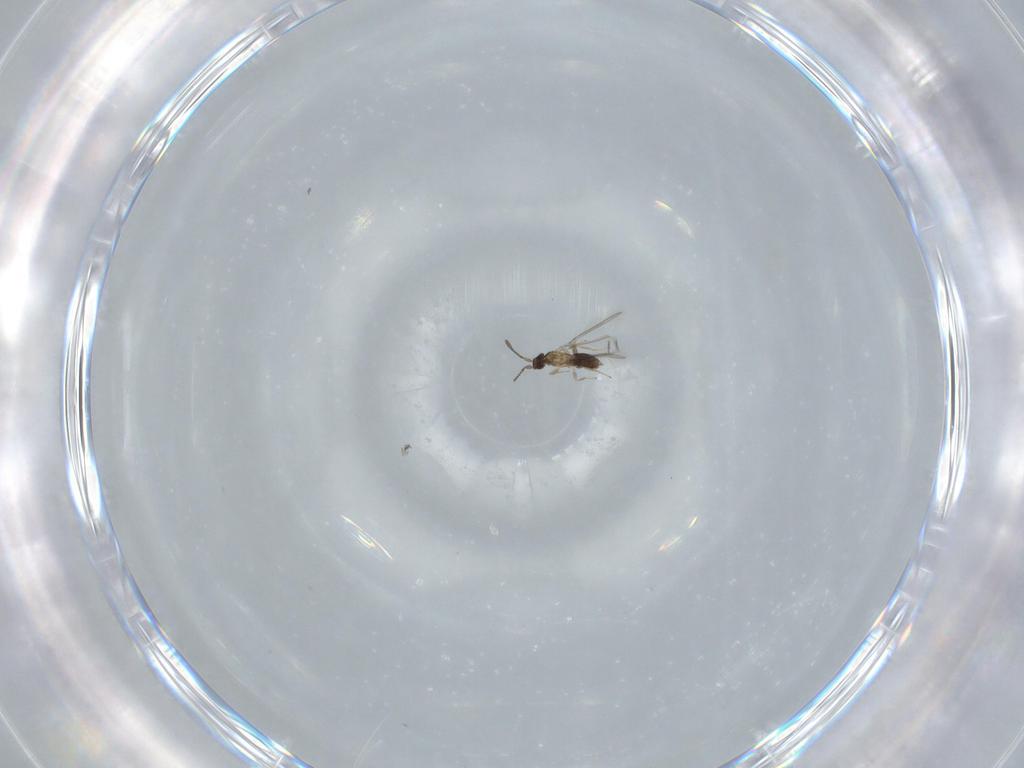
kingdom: Animalia
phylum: Arthropoda
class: Insecta
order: Hymenoptera
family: Mymaridae
